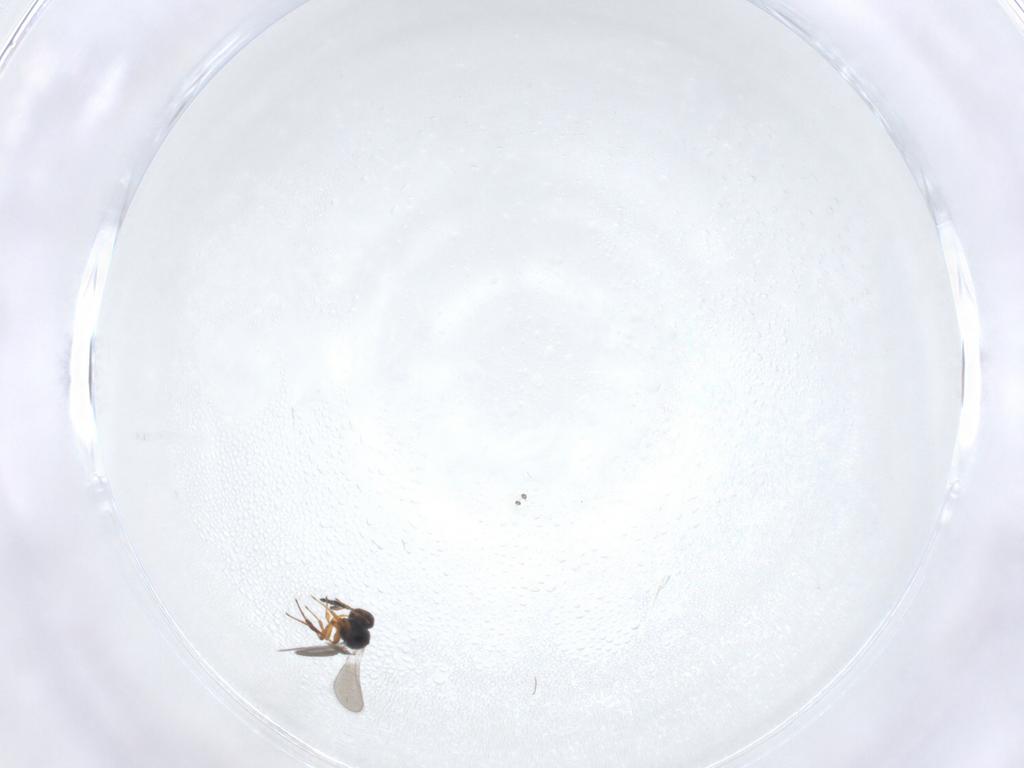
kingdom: Animalia
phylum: Arthropoda
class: Insecta
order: Hymenoptera
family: Platygastridae
